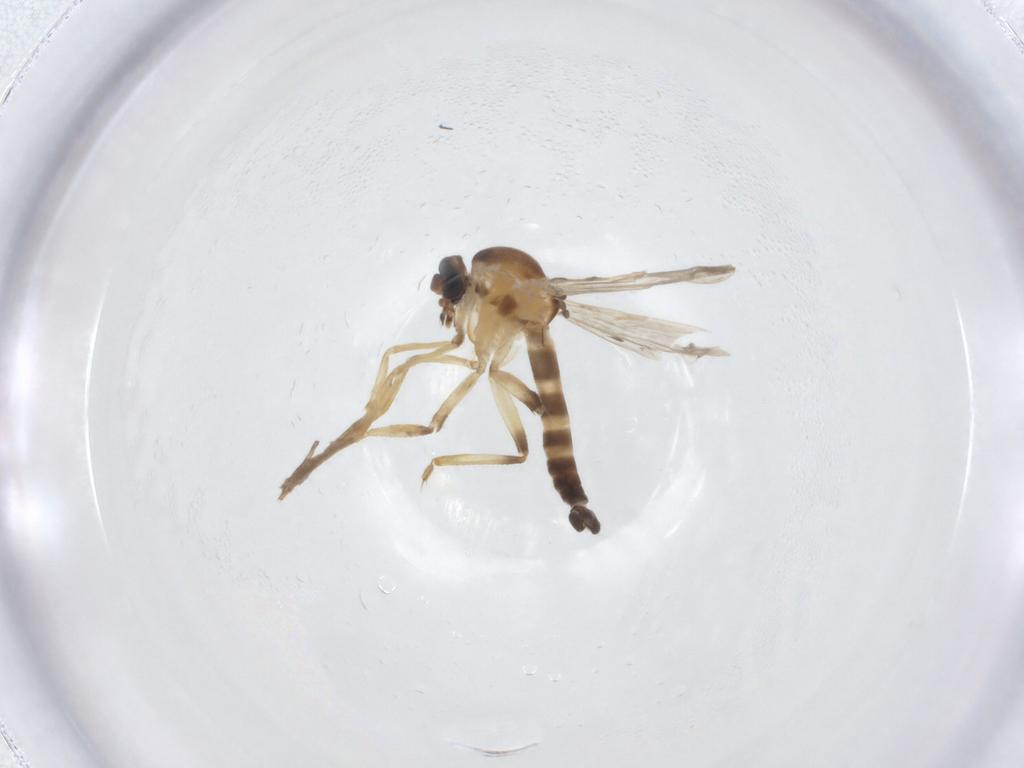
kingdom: Animalia
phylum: Arthropoda
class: Insecta
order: Diptera
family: Ceratopogonidae
